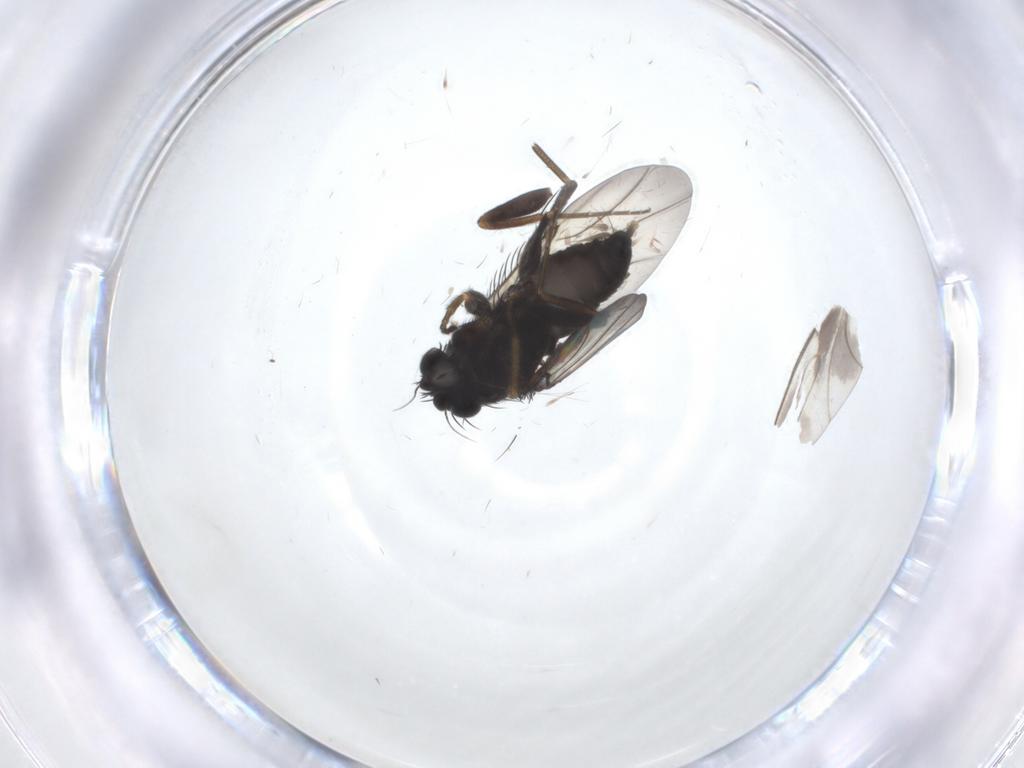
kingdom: Animalia
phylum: Arthropoda
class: Insecta
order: Diptera
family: Phoridae
